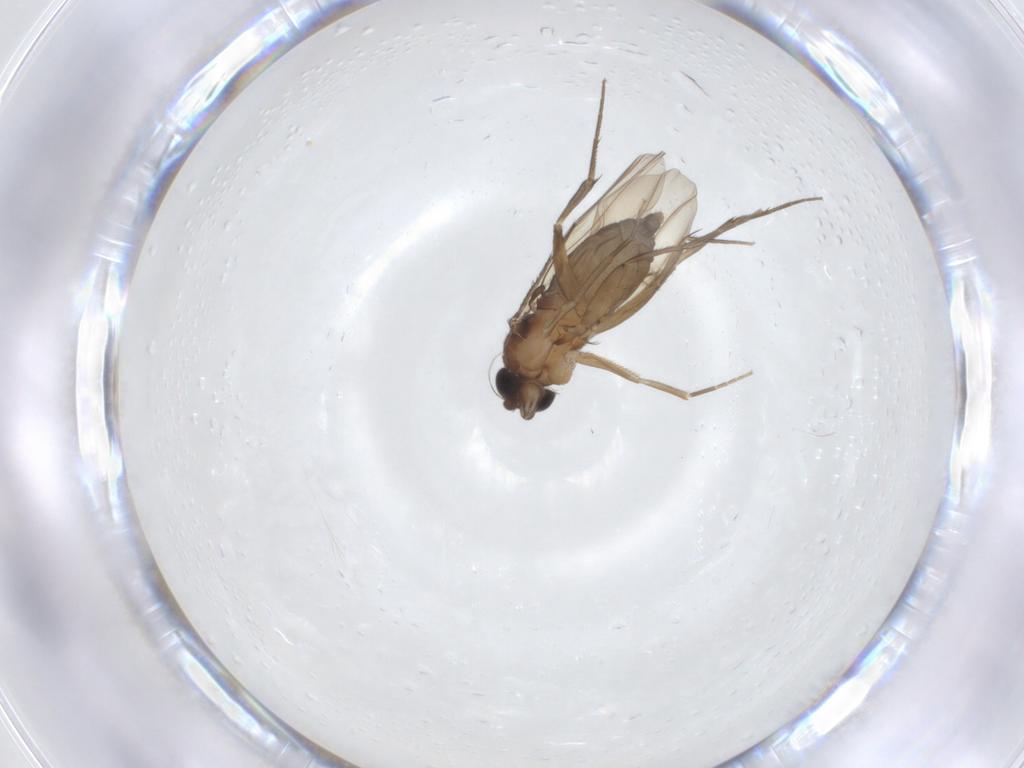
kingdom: Animalia
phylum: Arthropoda
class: Insecta
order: Diptera
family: Phoridae
